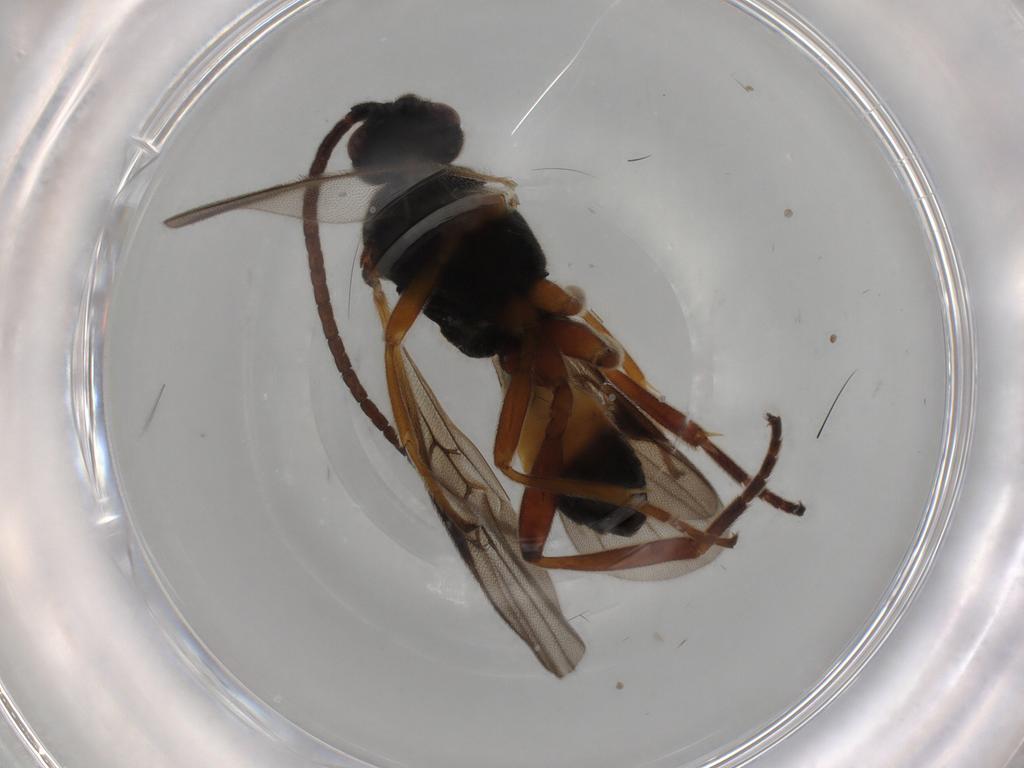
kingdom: Animalia
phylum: Arthropoda
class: Insecta
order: Hymenoptera
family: Braconidae
